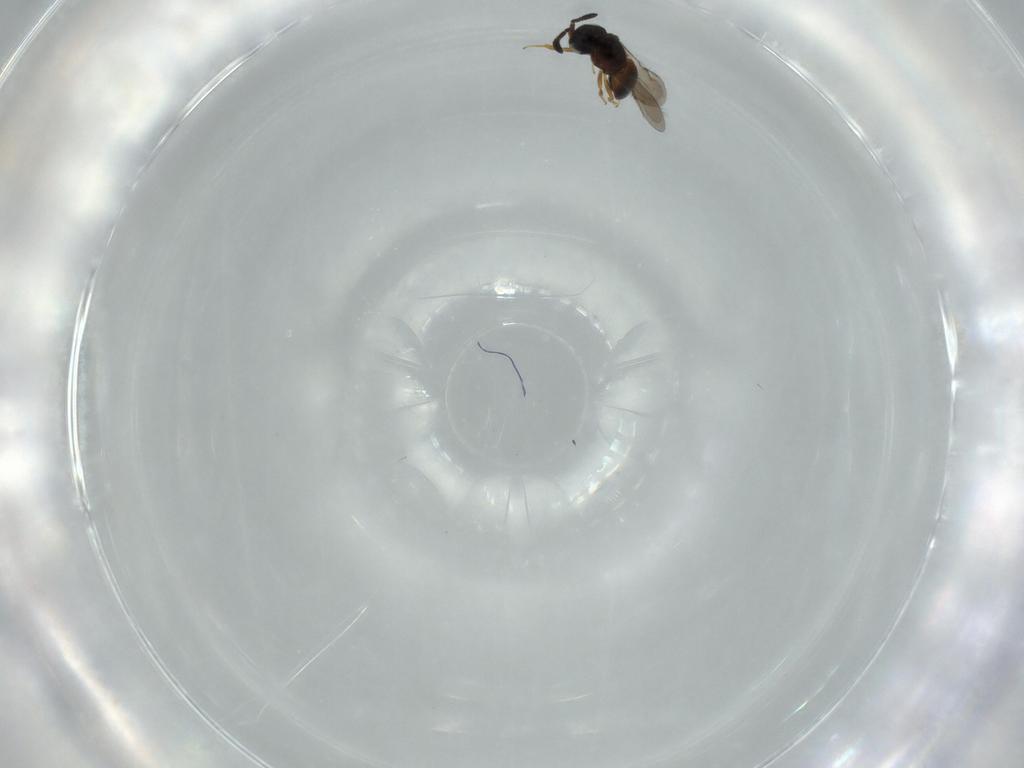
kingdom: Animalia
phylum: Arthropoda
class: Insecta
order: Hymenoptera
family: Scelionidae
